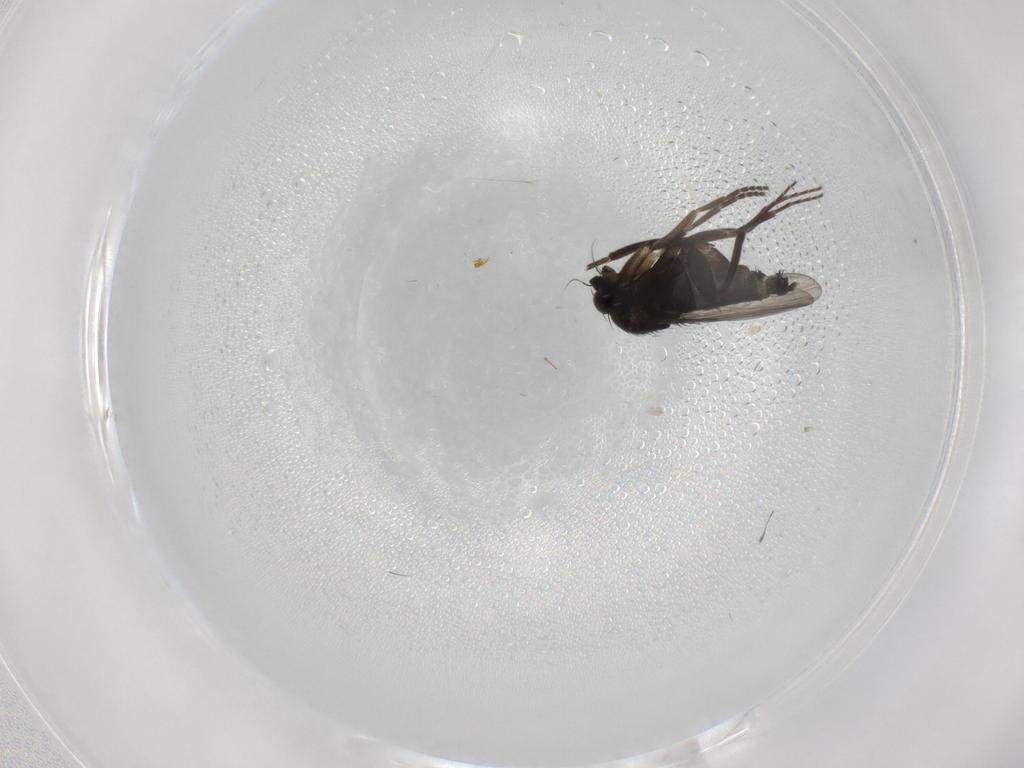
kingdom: Animalia
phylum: Arthropoda
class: Insecta
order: Diptera
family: Phoridae
